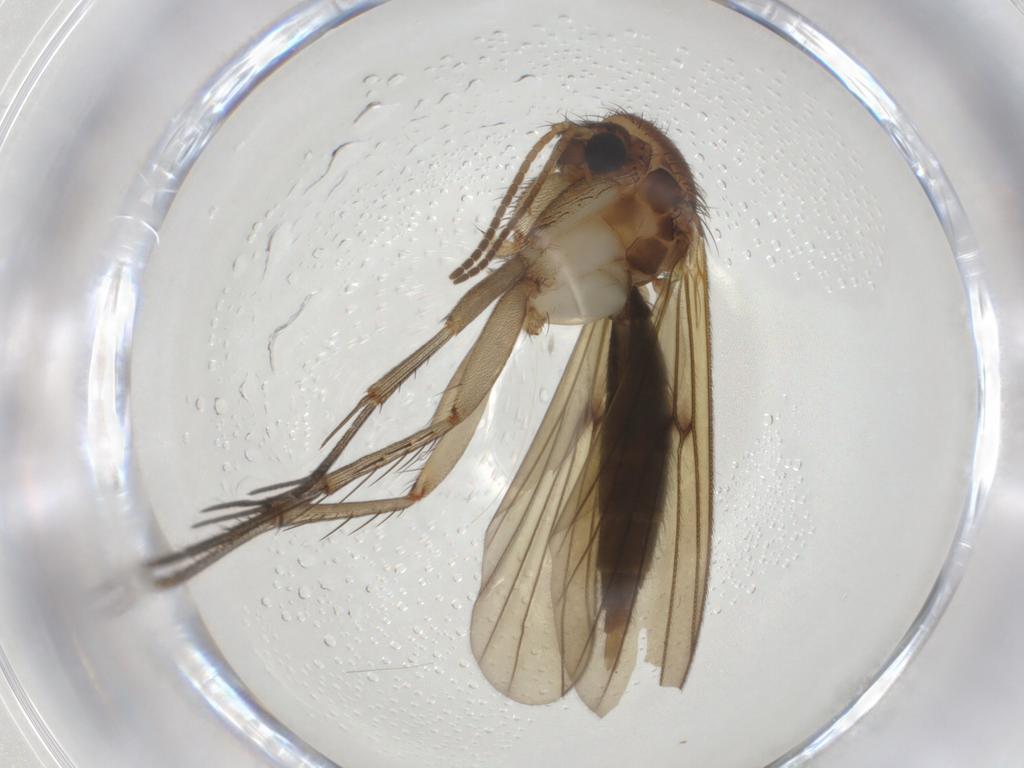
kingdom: Animalia
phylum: Arthropoda
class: Insecta
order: Diptera
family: Mycetophilidae
